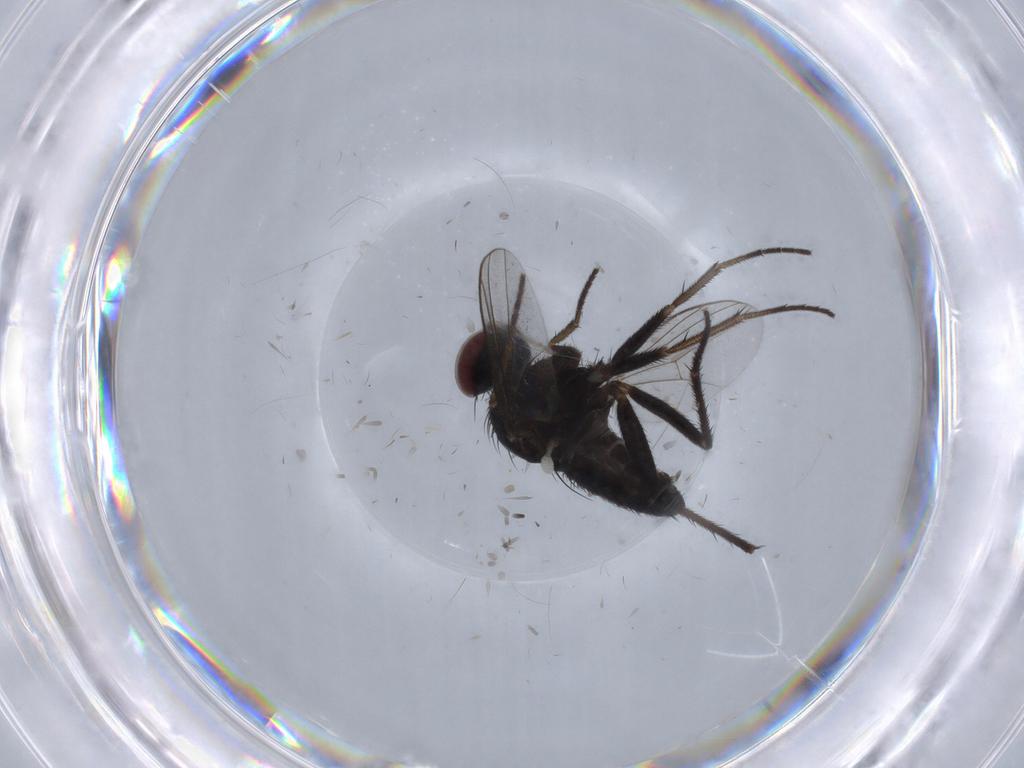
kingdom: Animalia
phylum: Arthropoda
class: Insecta
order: Diptera
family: Dolichopodidae
